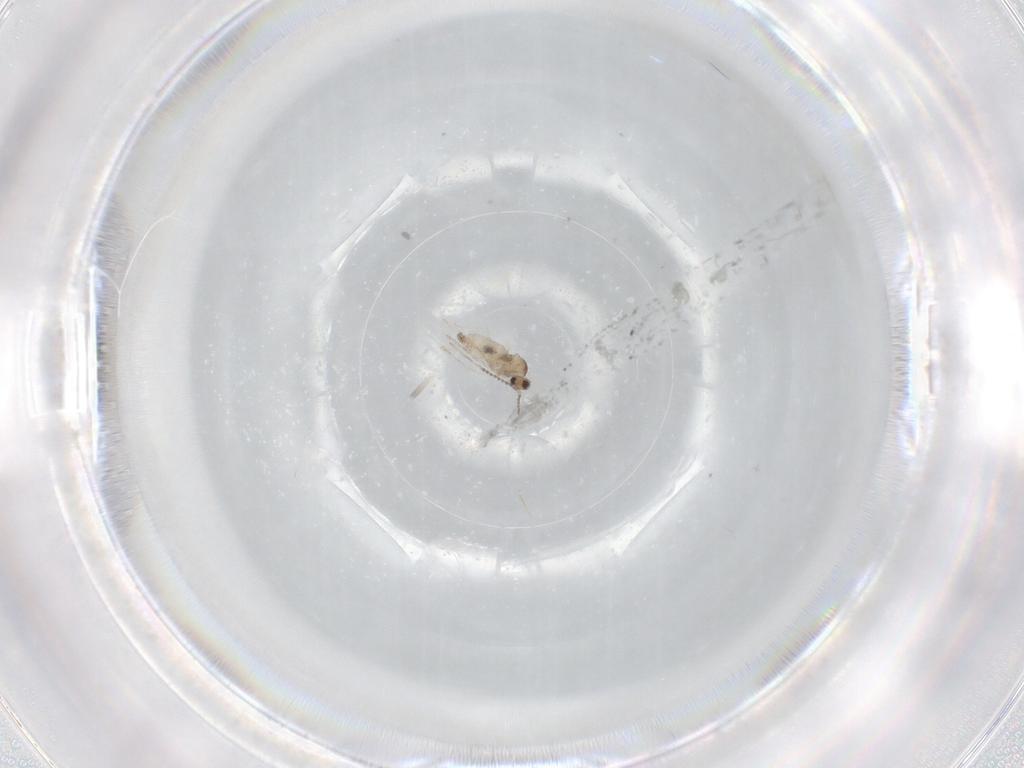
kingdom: Animalia
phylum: Arthropoda
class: Insecta
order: Diptera
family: Cecidomyiidae
